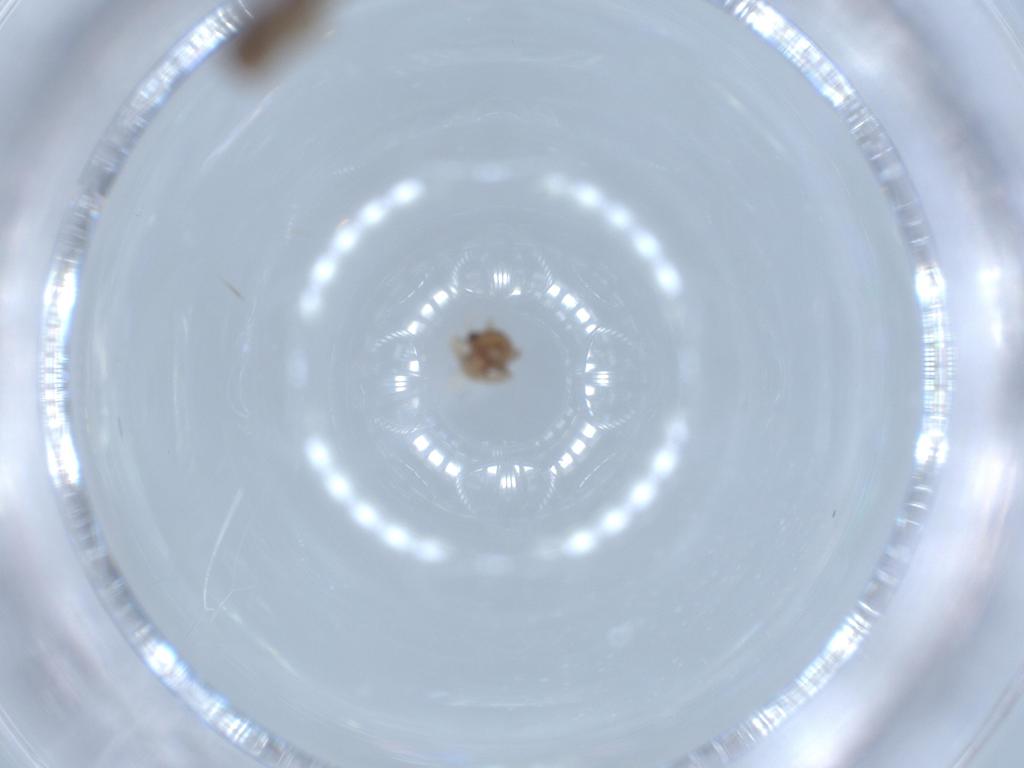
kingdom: Animalia
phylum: Arthropoda
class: Insecta
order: Psocodea
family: Ectopsocidae
